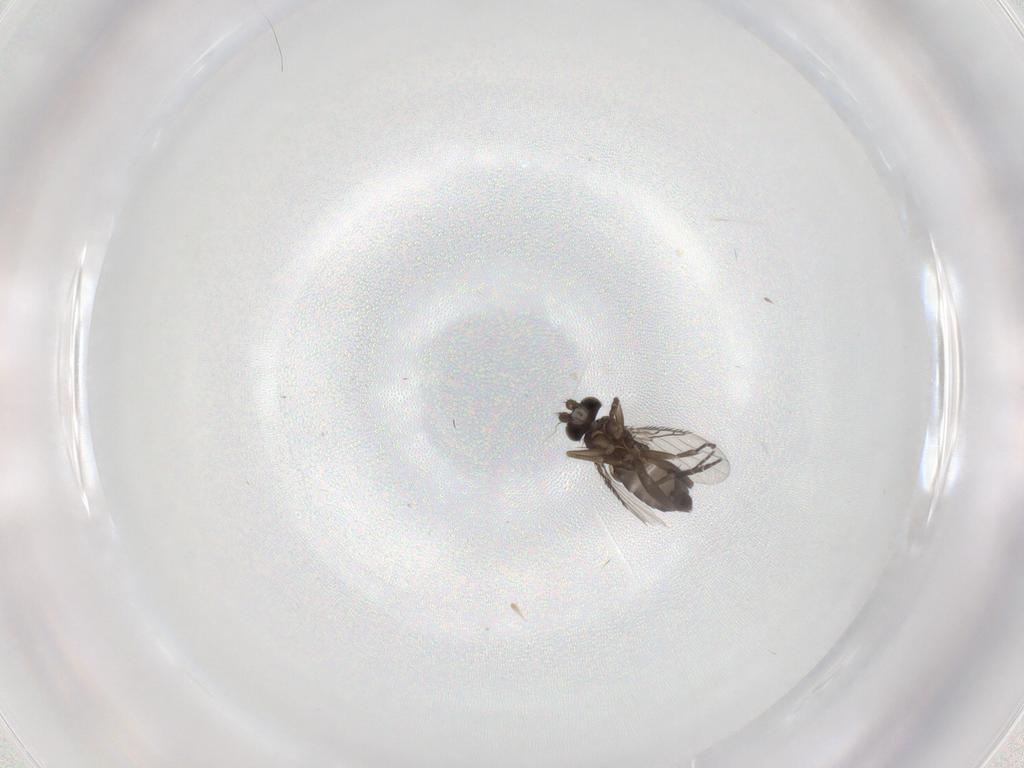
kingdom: Animalia
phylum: Arthropoda
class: Insecta
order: Diptera
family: Phoridae
